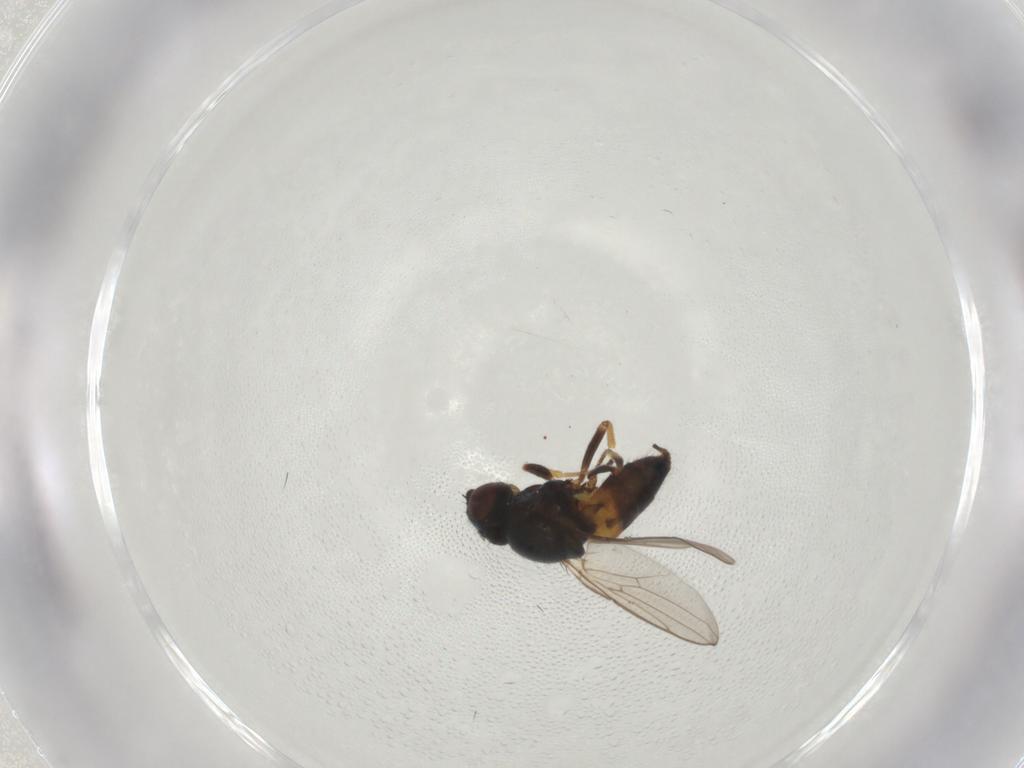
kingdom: Animalia
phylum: Arthropoda
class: Insecta
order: Diptera
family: Chloropidae
